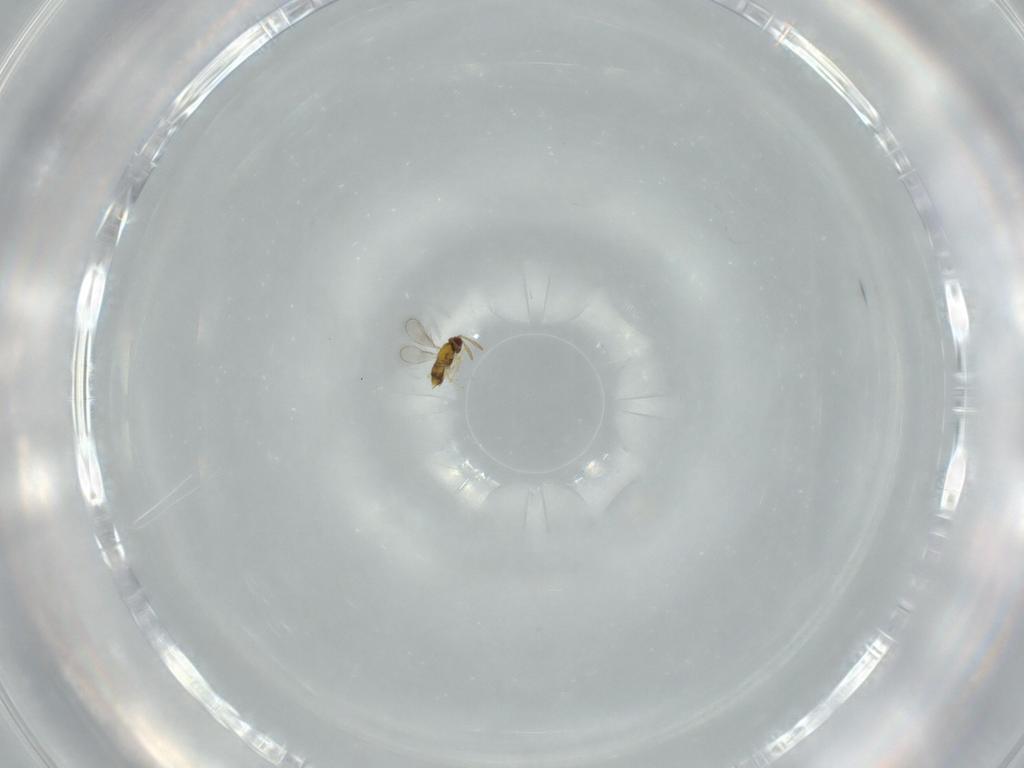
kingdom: Animalia
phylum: Arthropoda
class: Insecta
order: Hymenoptera
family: Aphelinidae
